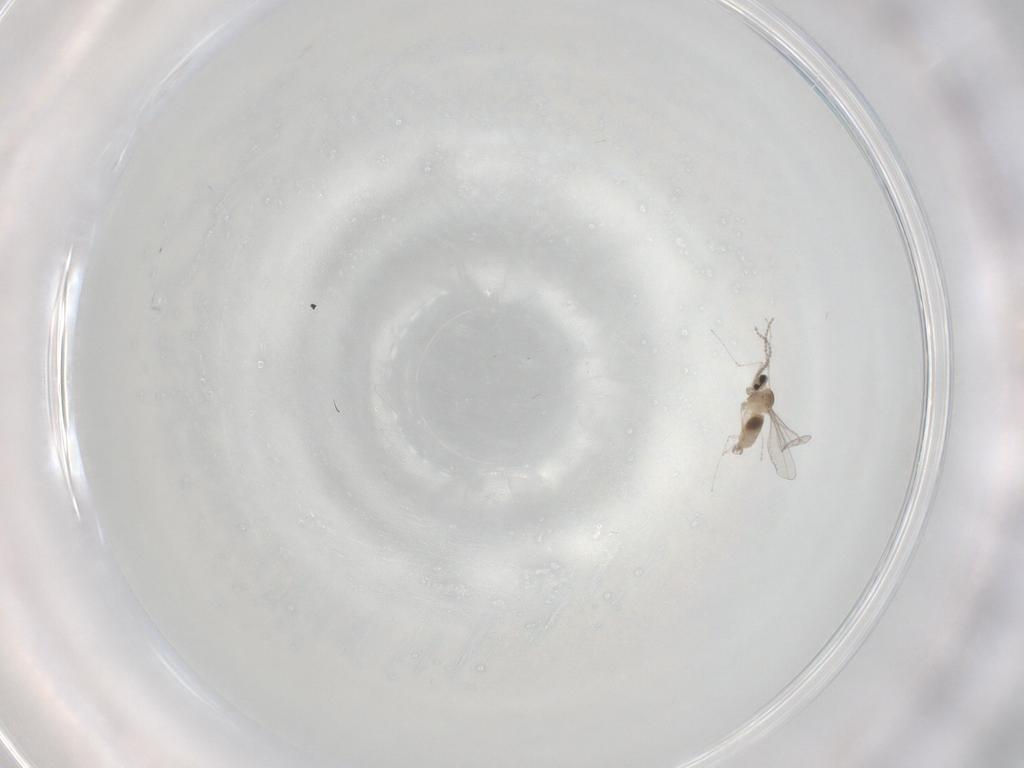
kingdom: Animalia
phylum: Arthropoda
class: Insecta
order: Diptera
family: Cecidomyiidae
